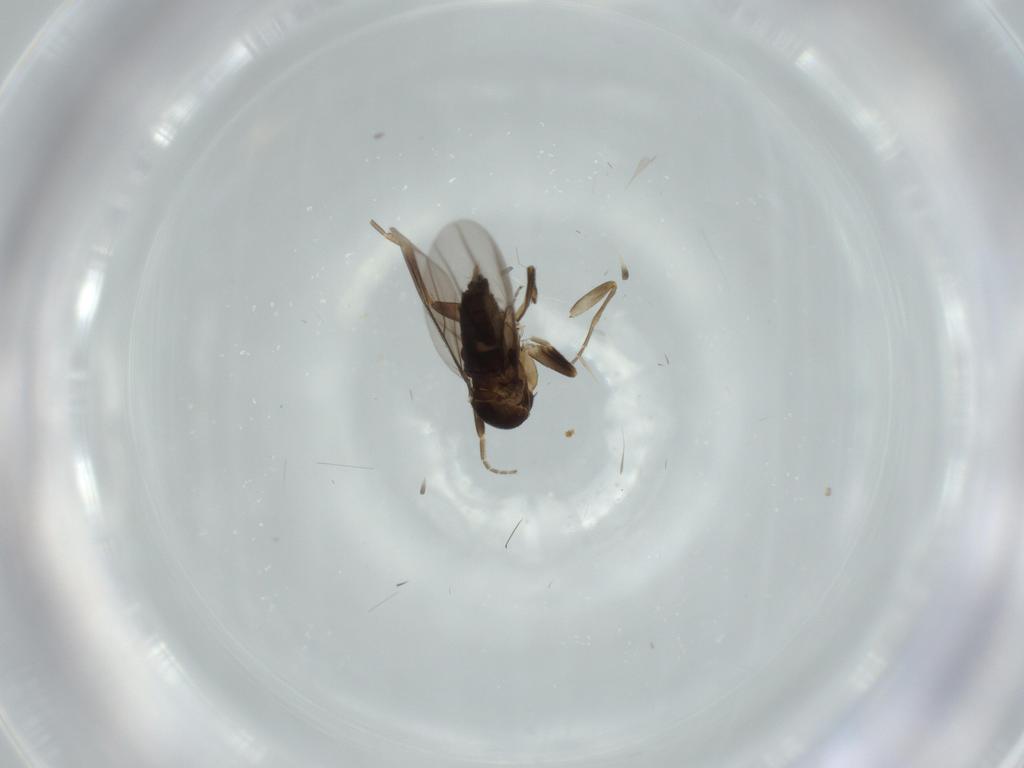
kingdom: Animalia
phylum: Arthropoda
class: Insecta
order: Diptera
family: Cecidomyiidae
